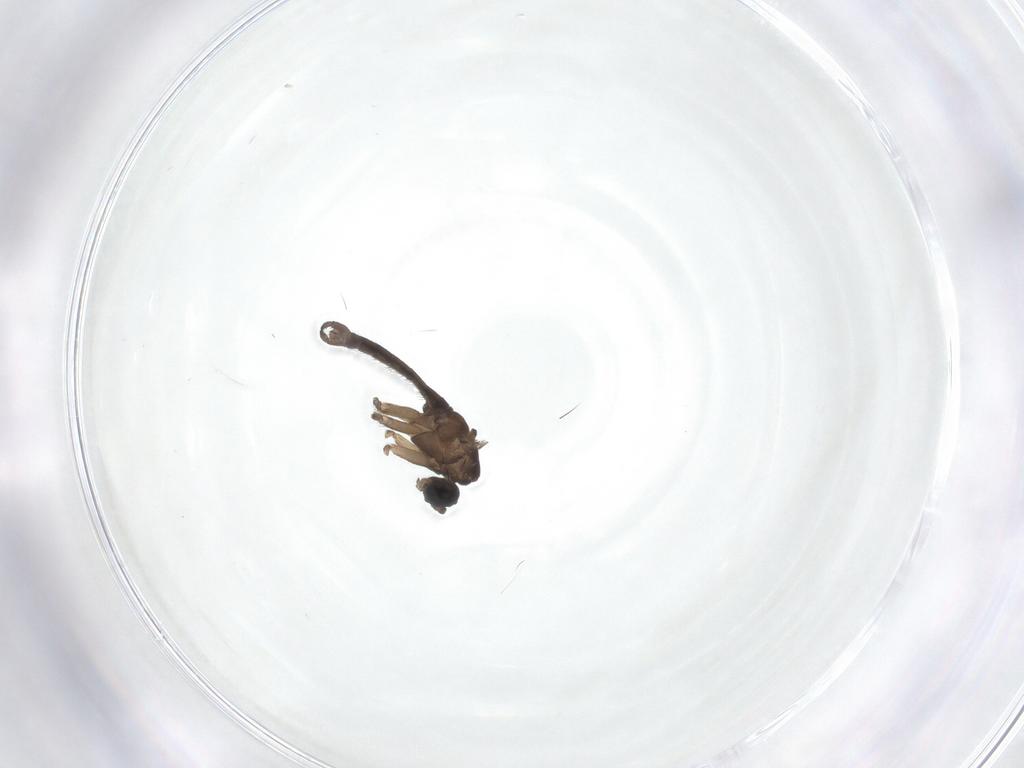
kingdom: Animalia
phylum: Arthropoda
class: Insecta
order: Diptera
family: Sciaridae
